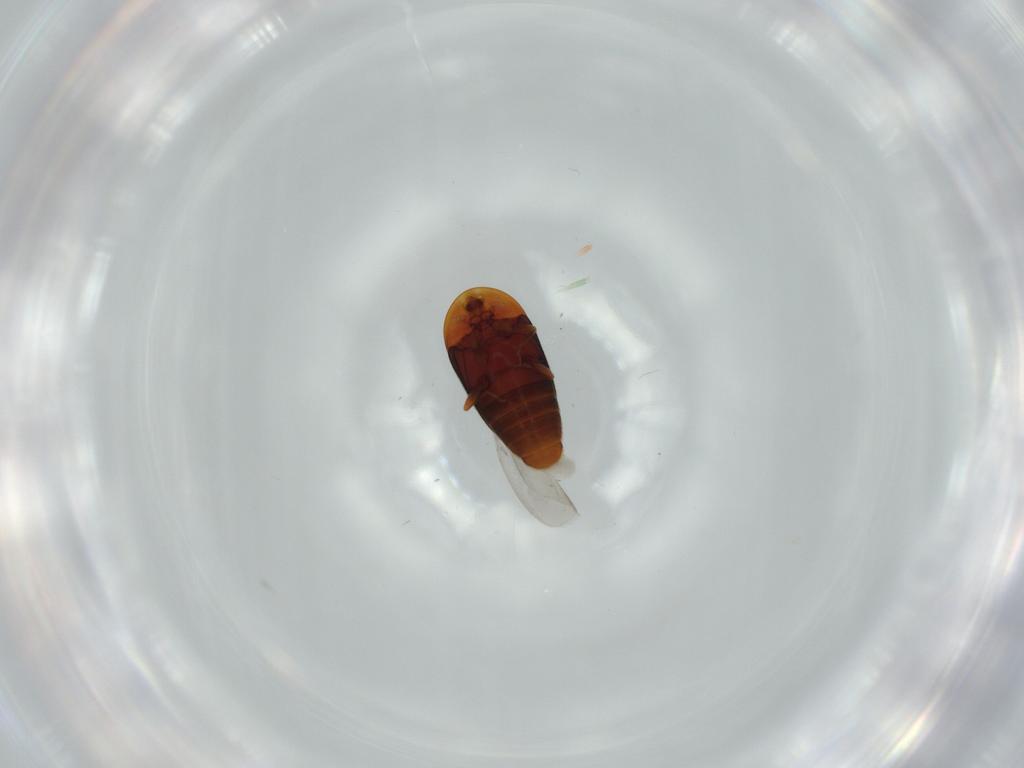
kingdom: Animalia
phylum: Arthropoda
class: Insecta
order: Coleoptera
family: Corylophidae
